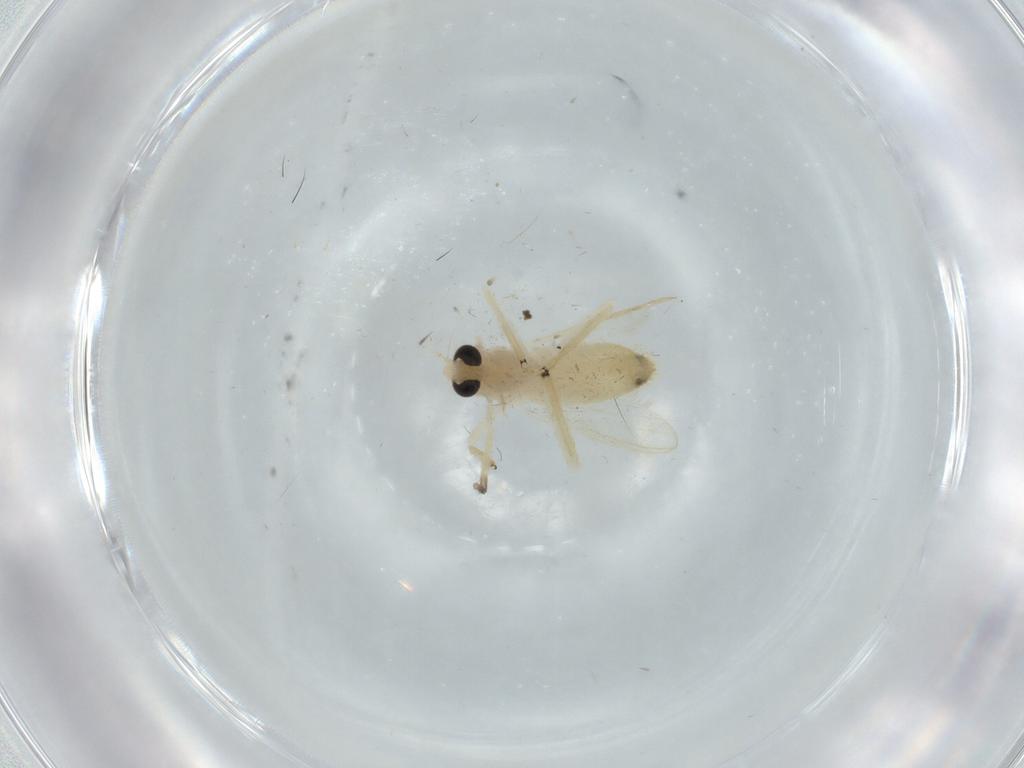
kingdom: Animalia
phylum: Arthropoda
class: Insecta
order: Diptera
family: Chironomidae
